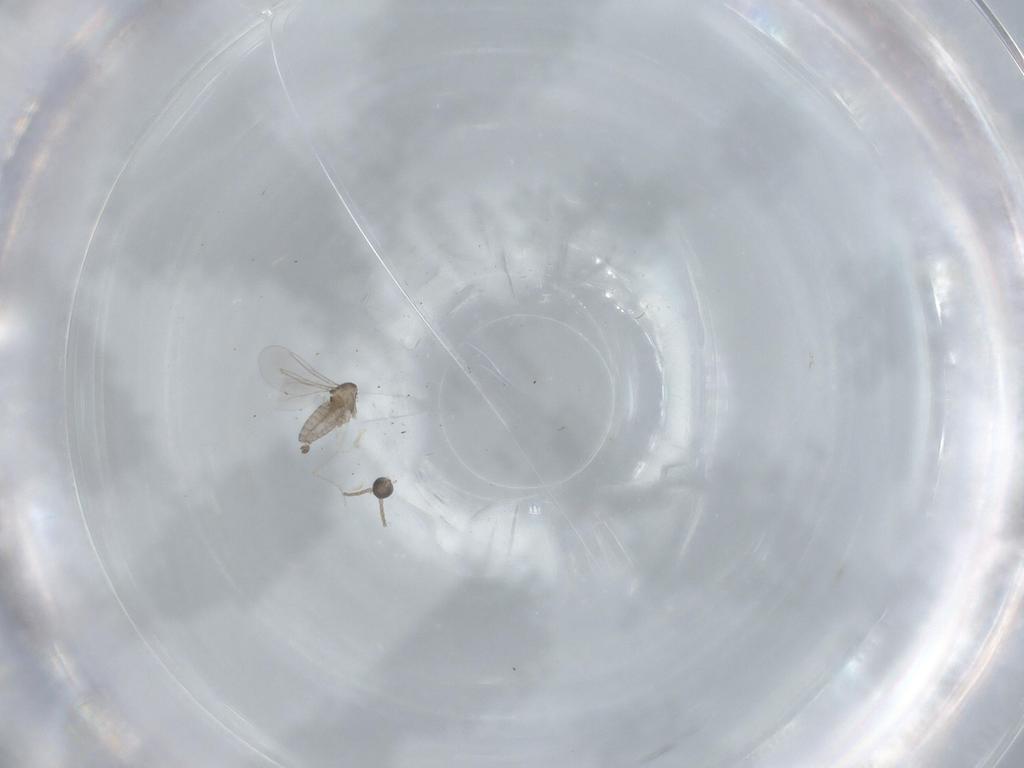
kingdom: Animalia
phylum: Arthropoda
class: Insecta
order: Diptera
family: Cecidomyiidae
